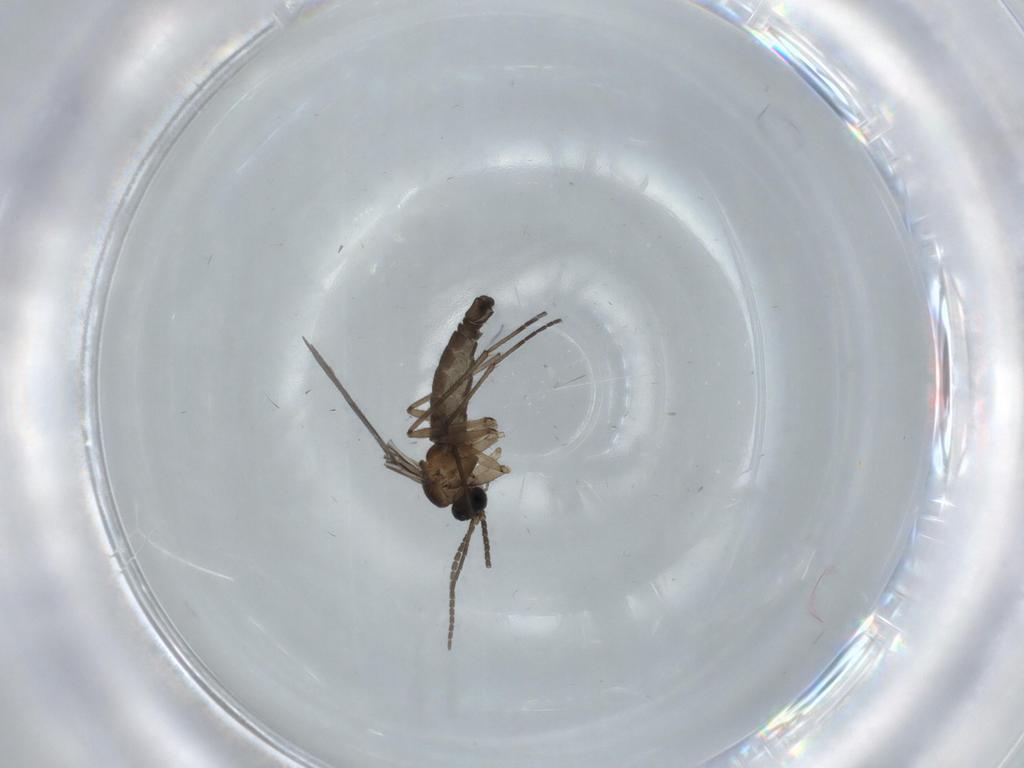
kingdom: Animalia
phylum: Arthropoda
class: Insecta
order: Diptera
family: Sciaridae
